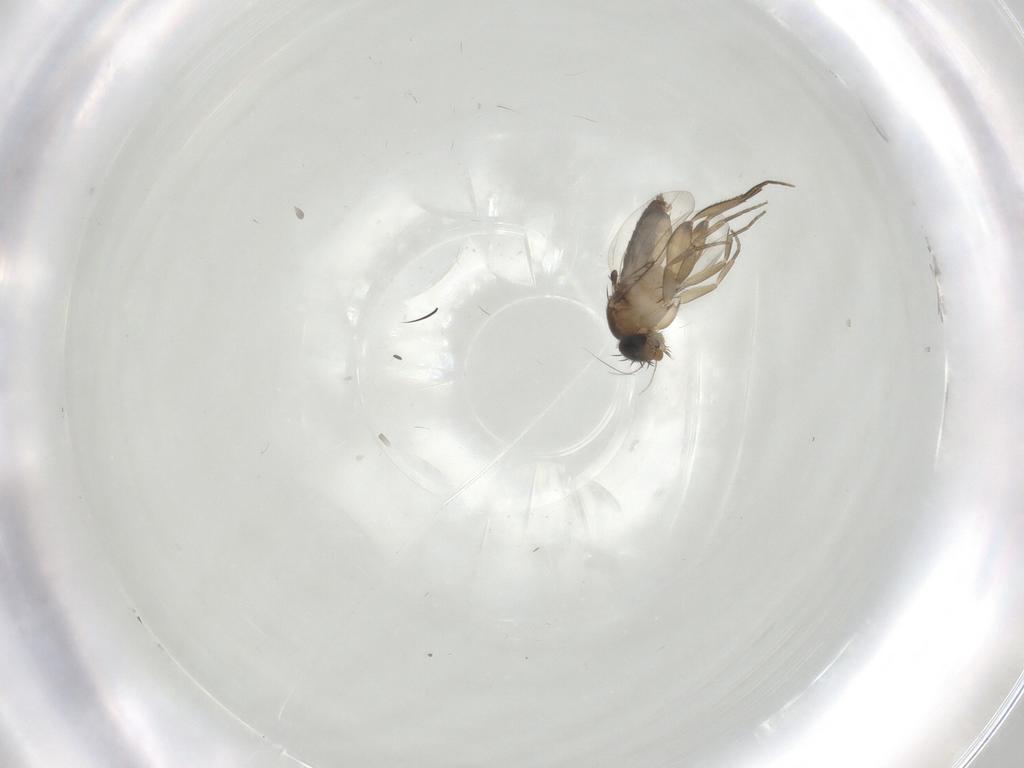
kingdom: Animalia
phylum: Arthropoda
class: Insecta
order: Diptera
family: Phoridae
